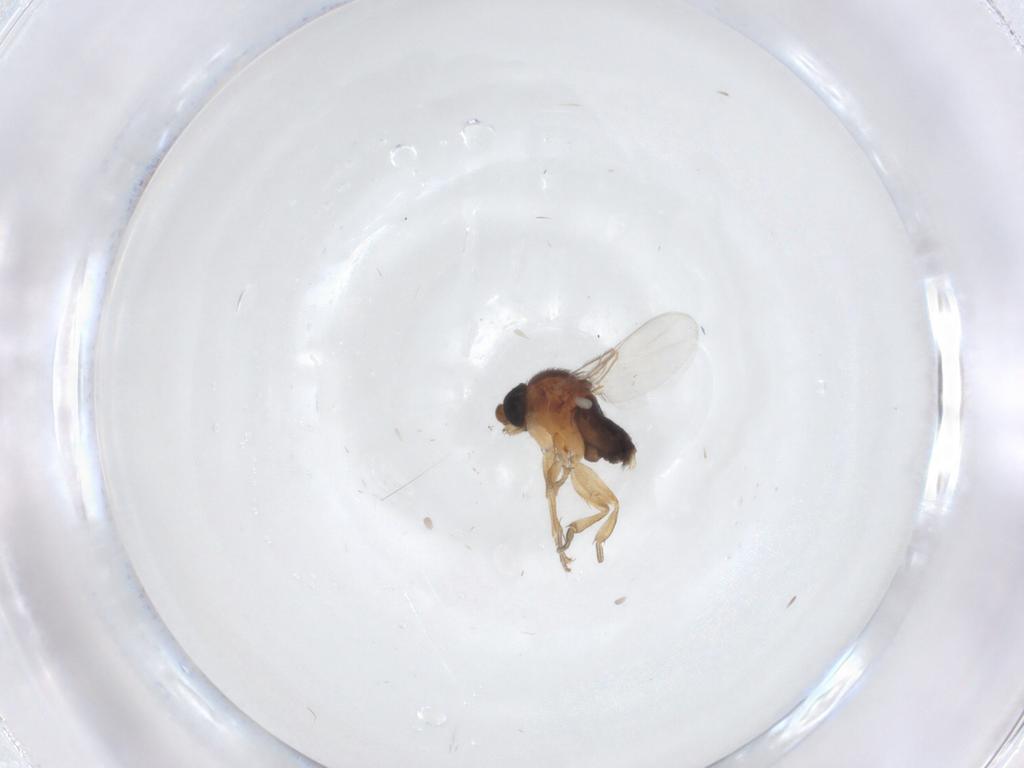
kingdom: Animalia
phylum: Arthropoda
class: Insecta
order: Diptera
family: Phoridae
